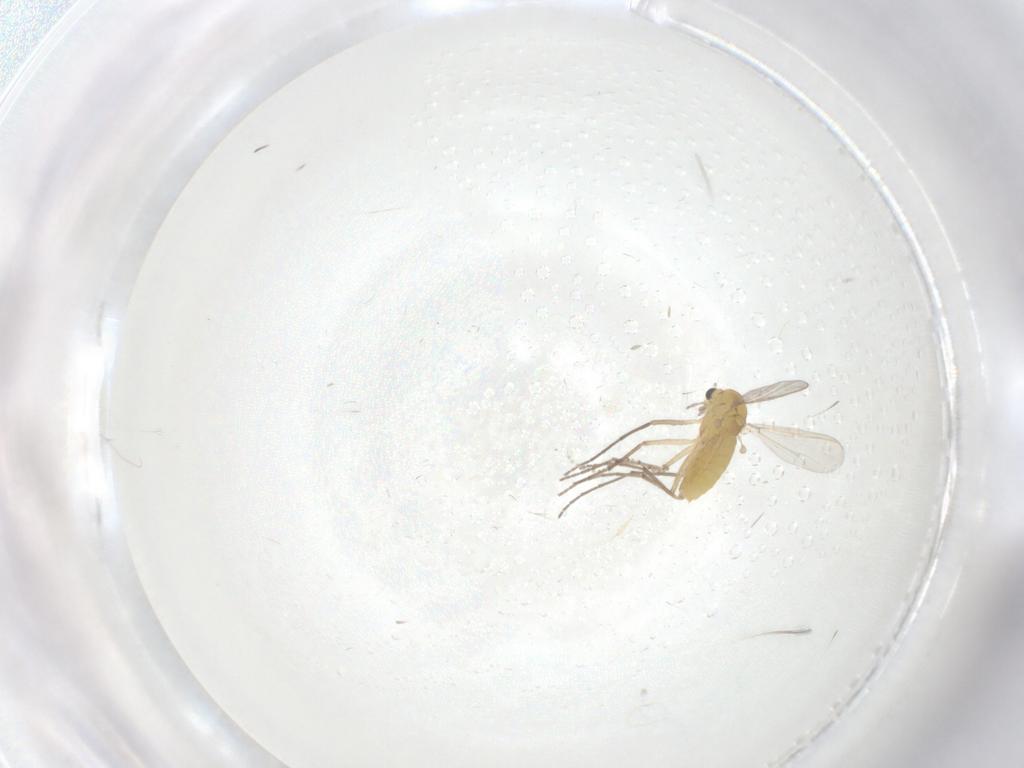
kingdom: Animalia
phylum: Arthropoda
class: Insecta
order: Diptera
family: Chironomidae
